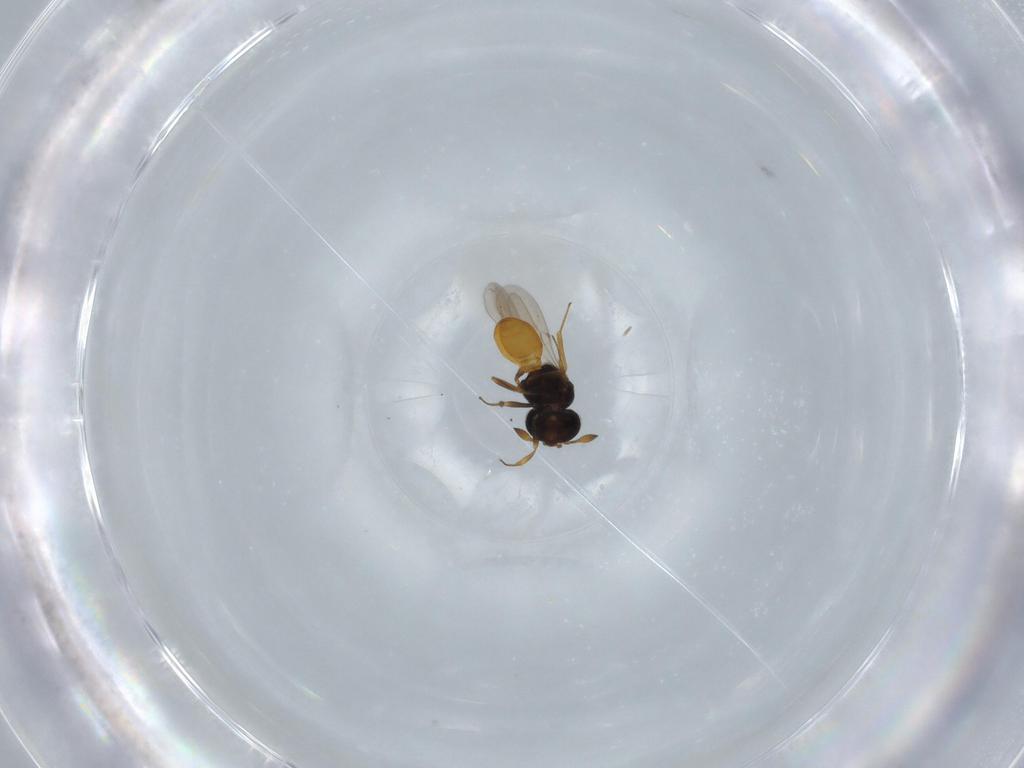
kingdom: Animalia
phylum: Arthropoda
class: Insecta
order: Hymenoptera
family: Scelionidae
